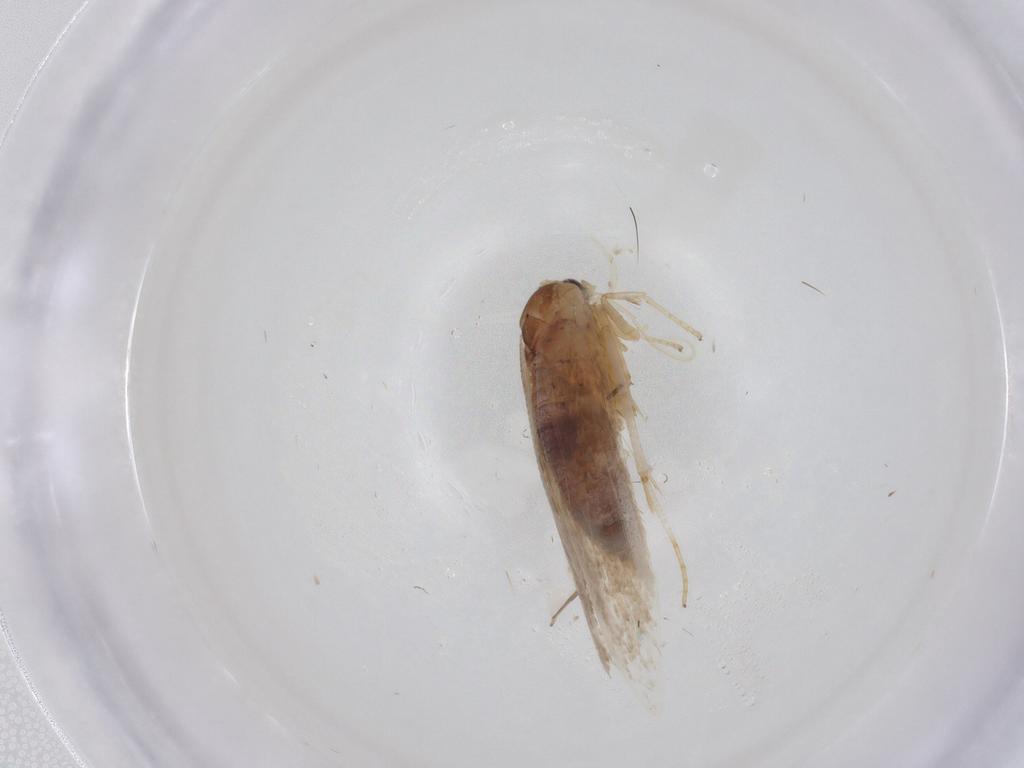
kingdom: Animalia
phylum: Arthropoda
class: Insecta
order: Lepidoptera
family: Blastobasidae
